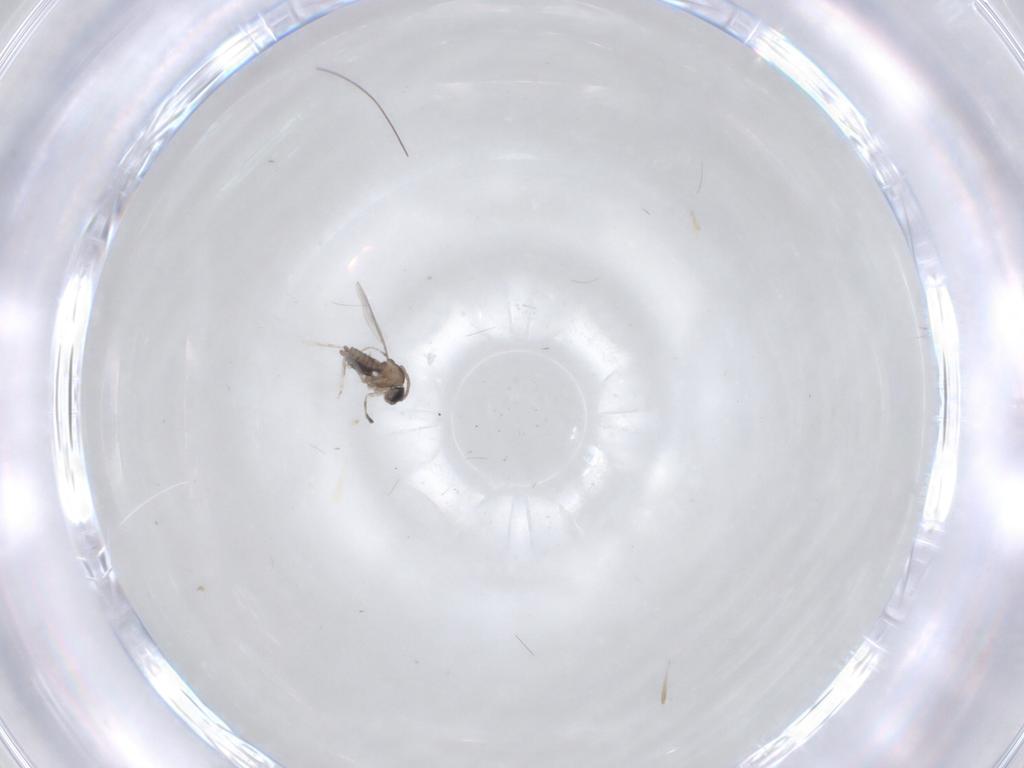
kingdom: Animalia
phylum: Arthropoda
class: Insecta
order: Diptera
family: Cecidomyiidae
